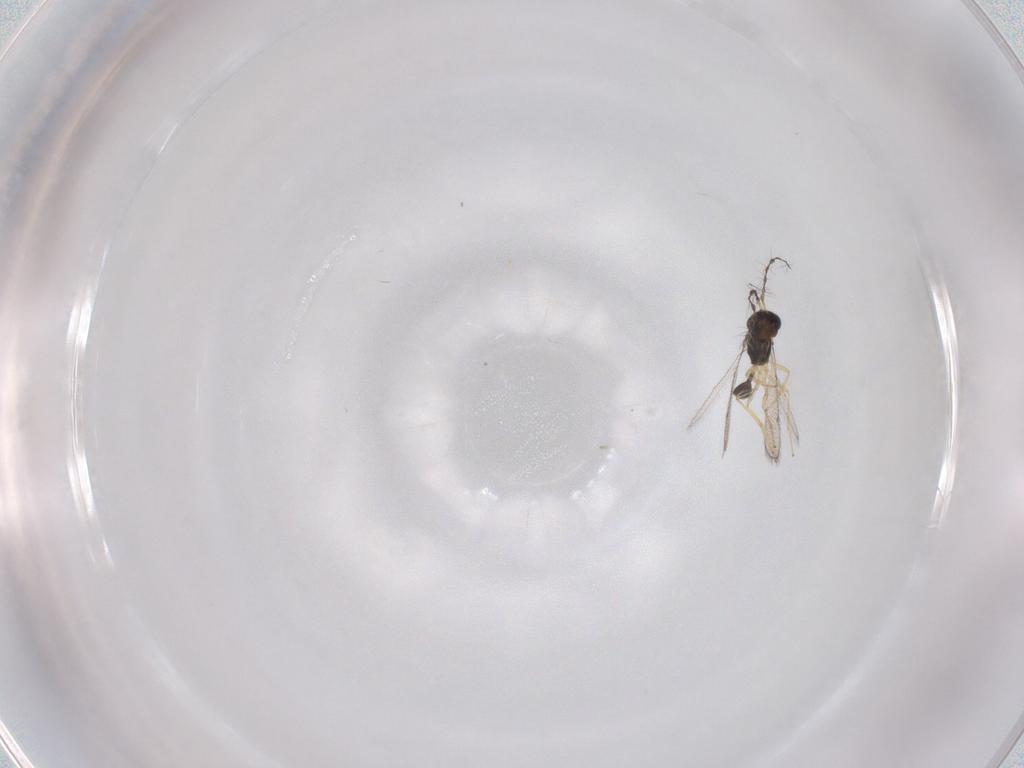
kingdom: Animalia
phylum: Arthropoda
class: Insecta
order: Hymenoptera
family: Diparidae
